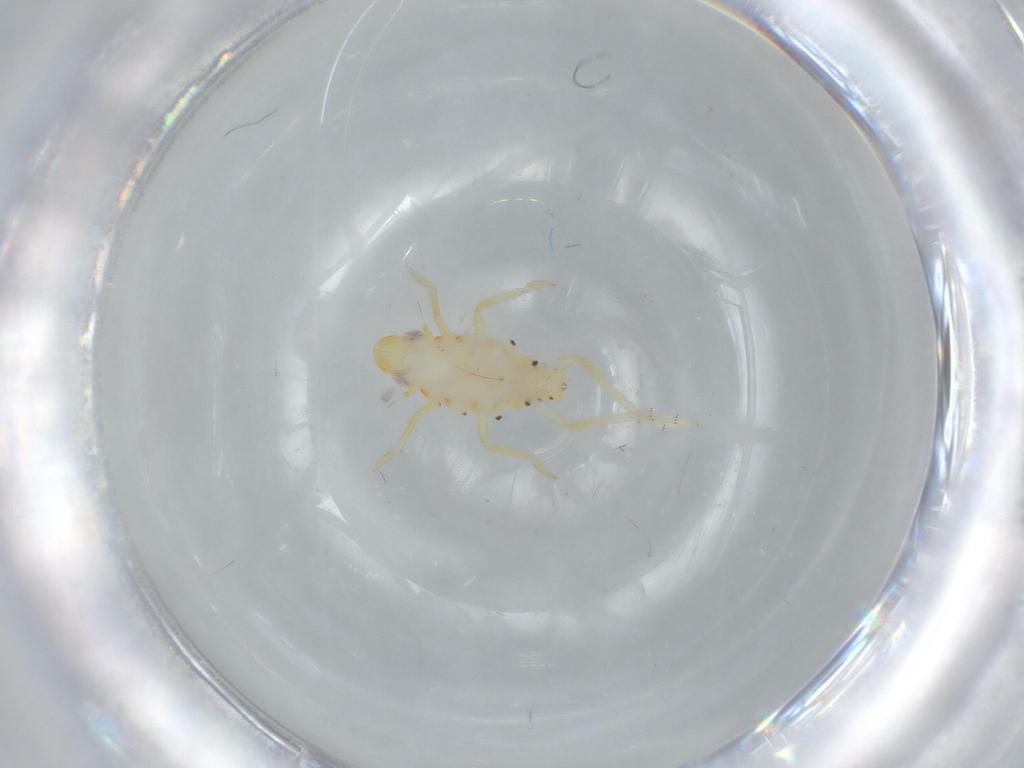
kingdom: Animalia
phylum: Arthropoda
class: Insecta
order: Hemiptera
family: Tropiduchidae
